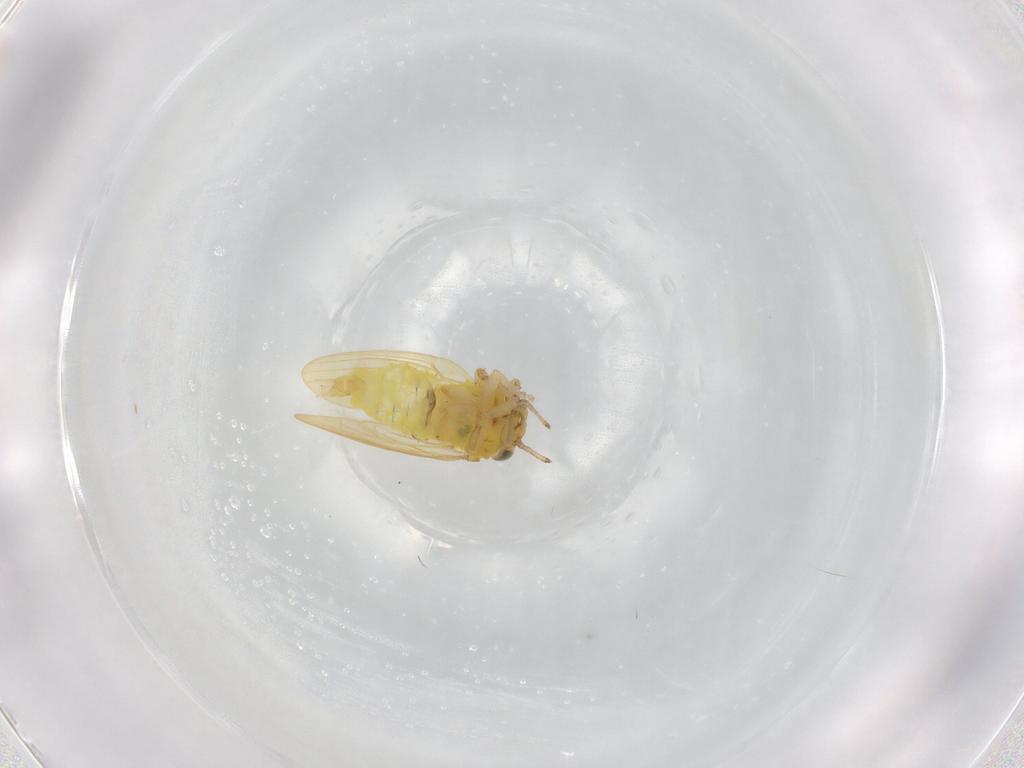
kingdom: Animalia
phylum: Arthropoda
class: Insecta
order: Hemiptera
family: Aphalaridae
